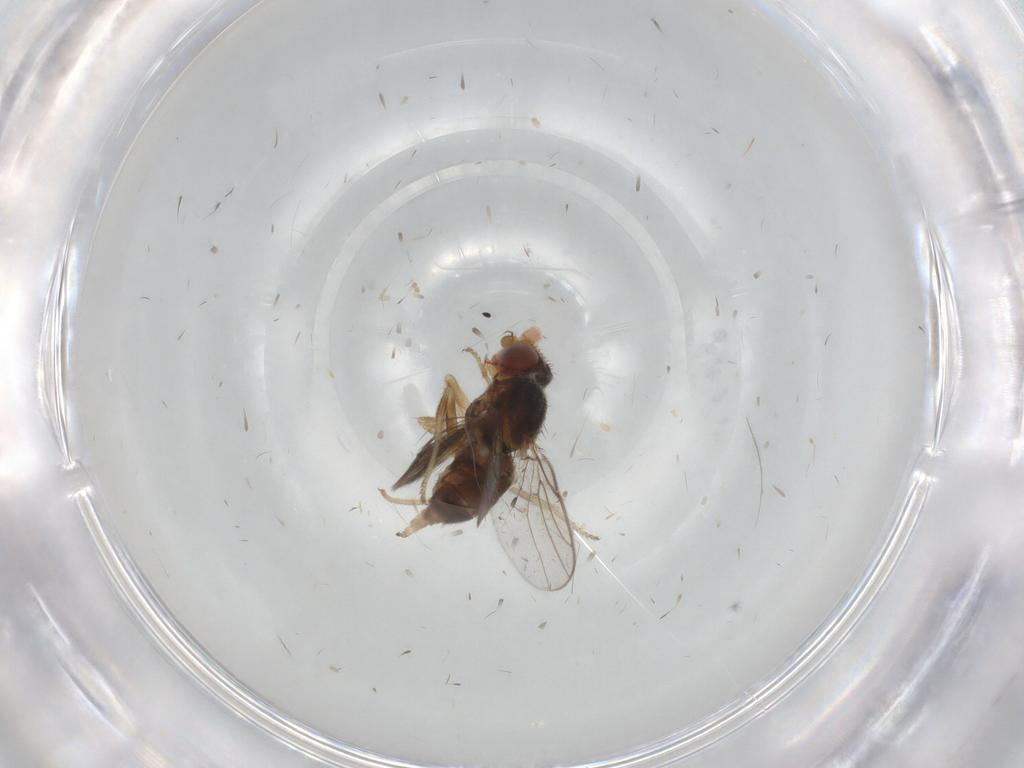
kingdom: Animalia
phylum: Arthropoda
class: Insecta
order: Diptera
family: Chloropidae
